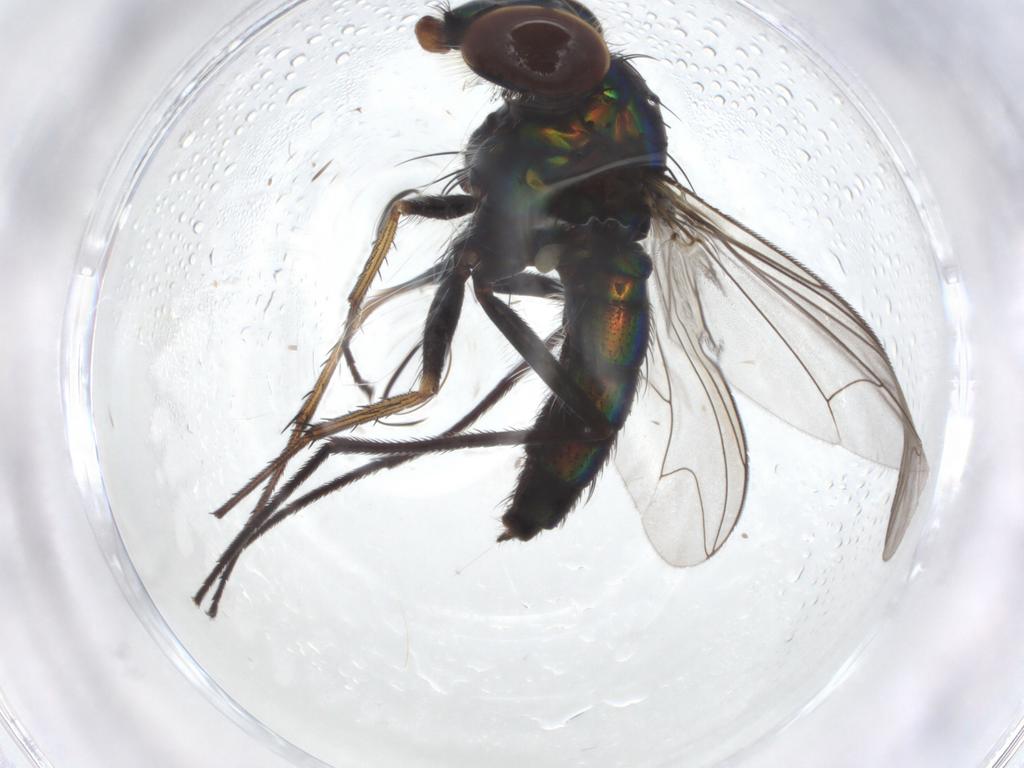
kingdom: Animalia
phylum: Arthropoda
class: Insecta
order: Diptera
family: Dolichopodidae
